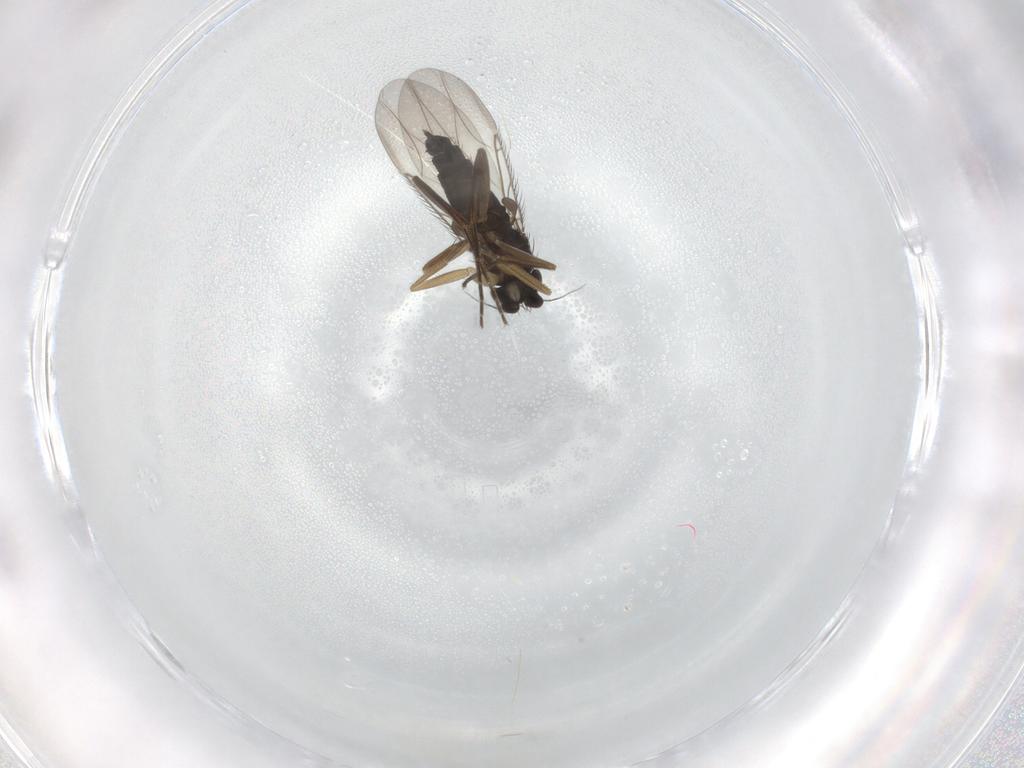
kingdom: Animalia
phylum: Arthropoda
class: Insecta
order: Diptera
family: Phoridae
